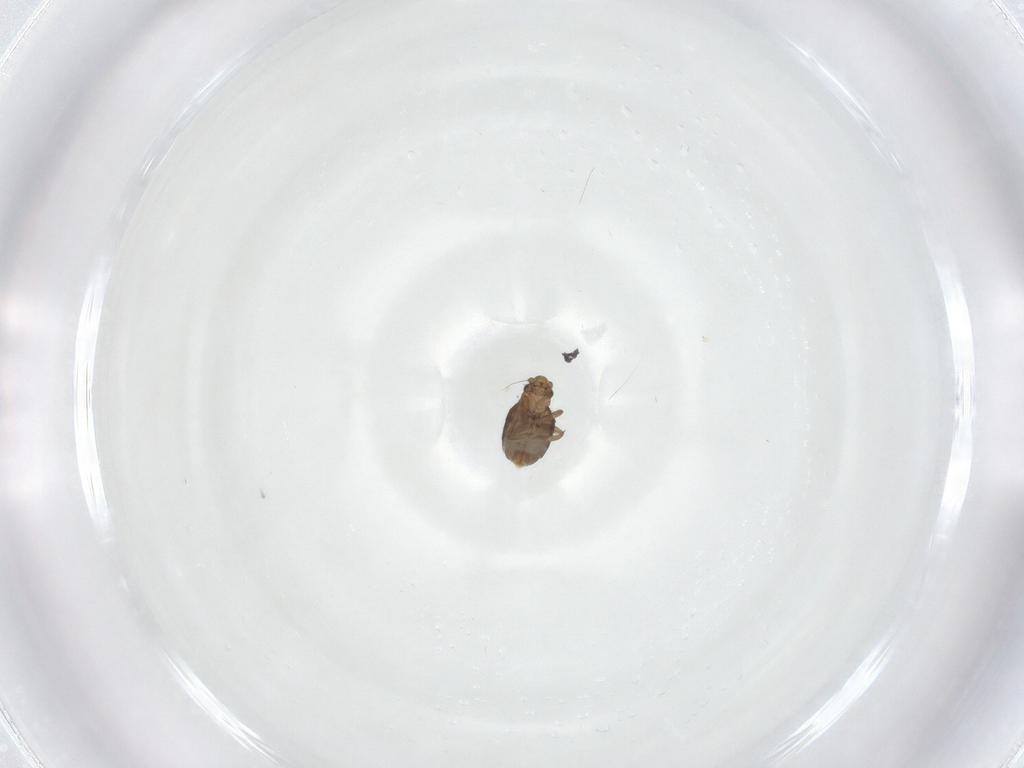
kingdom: Animalia
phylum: Arthropoda
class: Insecta
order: Diptera
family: Phoridae
